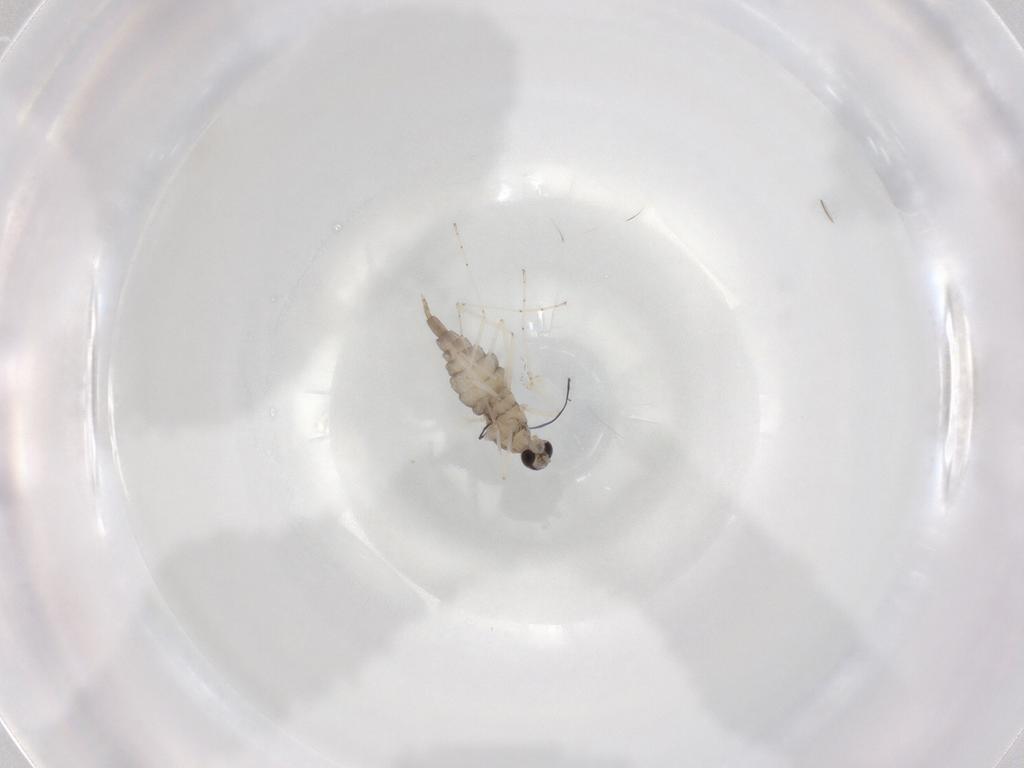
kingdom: Animalia
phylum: Arthropoda
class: Insecta
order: Diptera
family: Cecidomyiidae
